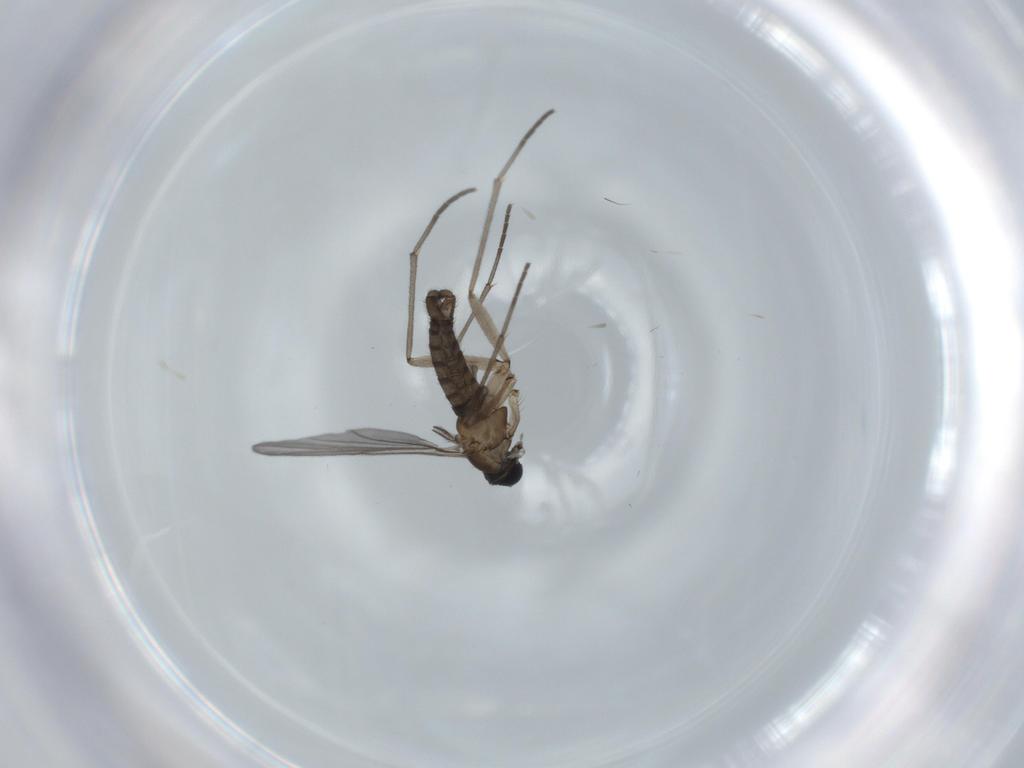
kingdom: Animalia
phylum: Arthropoda
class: Insecta
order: Diptera
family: Sciaridae
